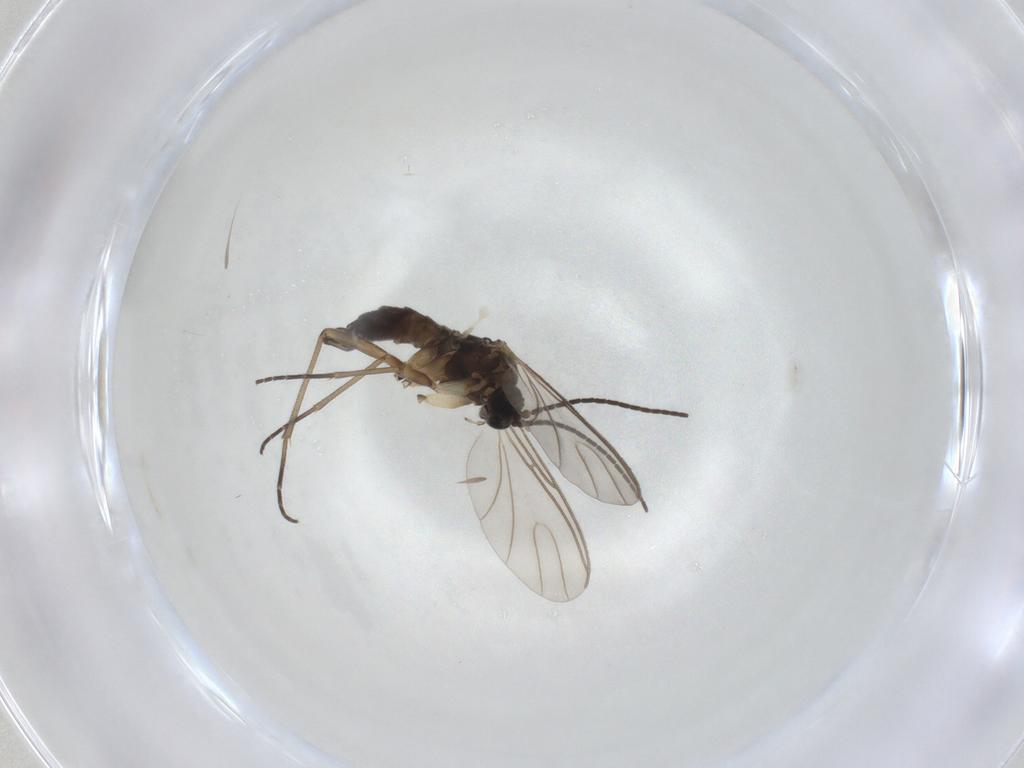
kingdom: Animalia
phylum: Arthropoda
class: Insecta
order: Diptera
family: Sciaridae
